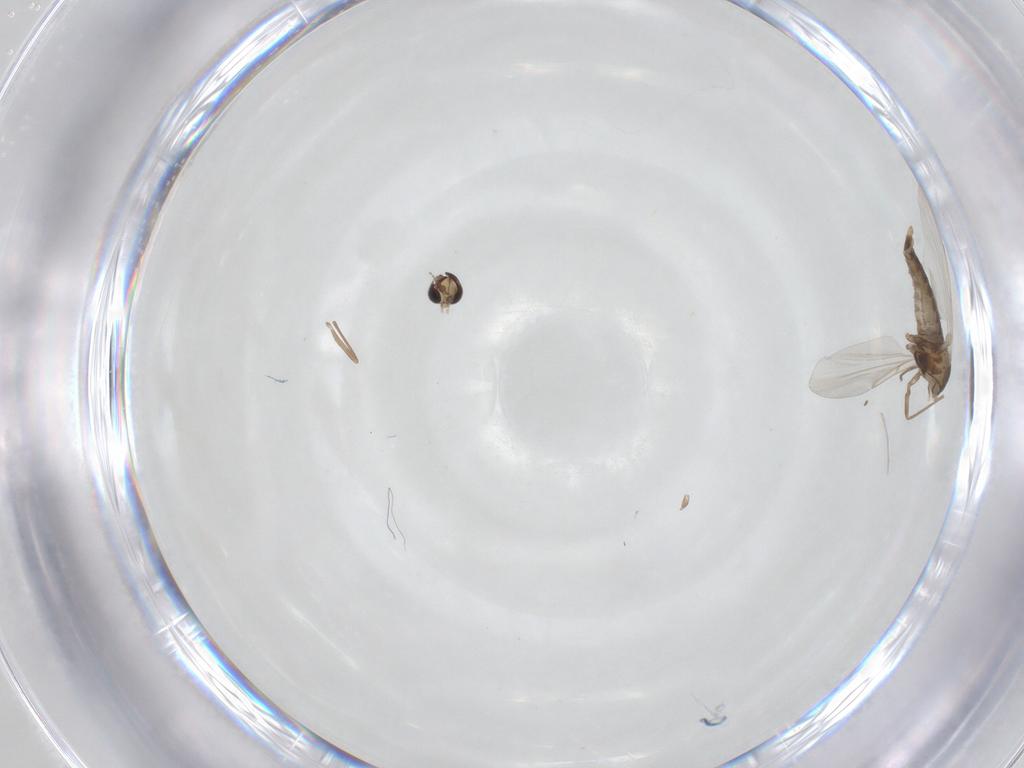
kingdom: Animalia
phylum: Arthropoda
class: Insecta
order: Diptera
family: Cecidomyiidae
